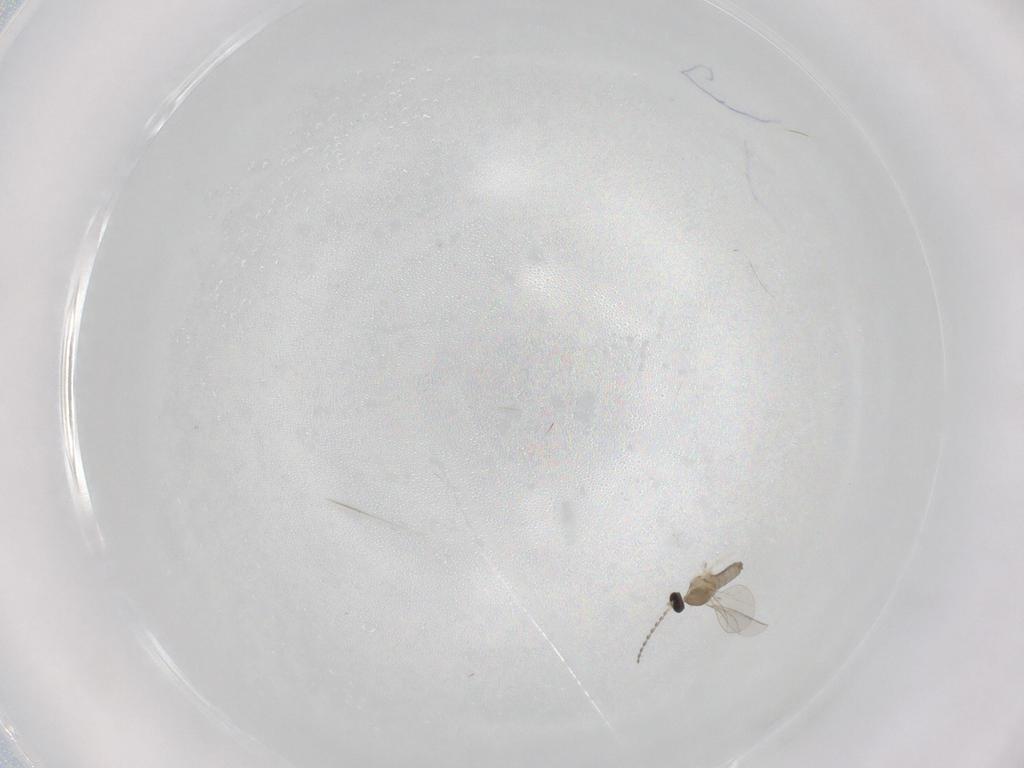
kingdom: Animalia
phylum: Arthropoda
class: Insecta
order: Diptera
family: Cecidomyiidae
